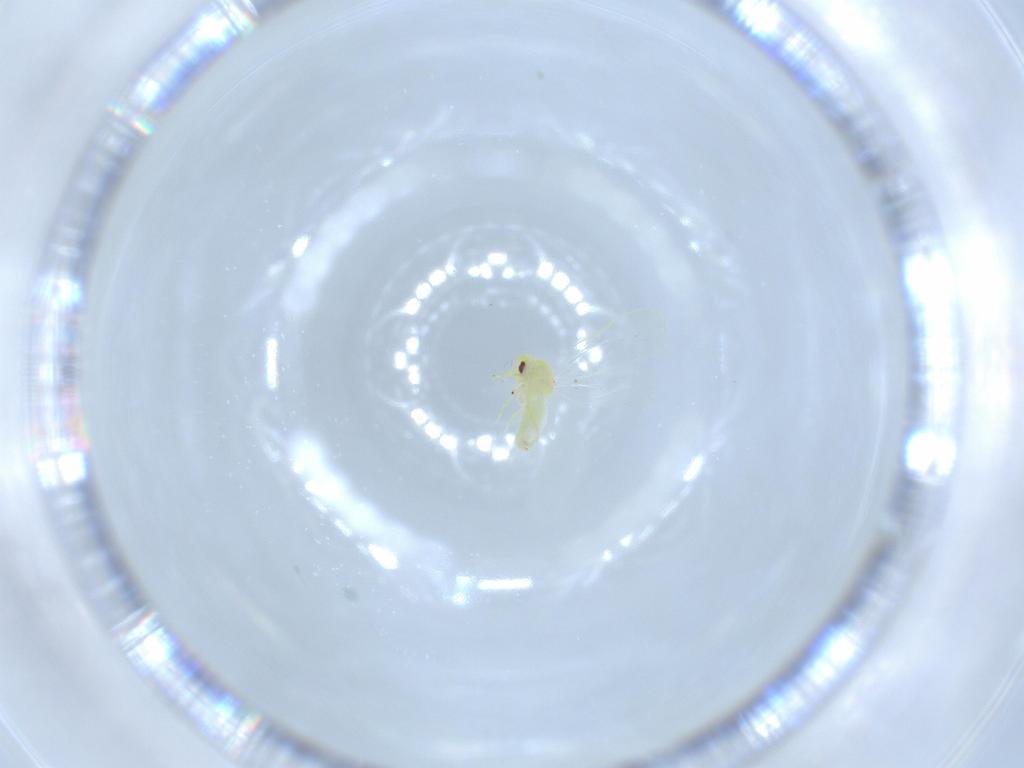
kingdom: Animalia
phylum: Arthropoda
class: Insecta
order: Hemiptera
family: Aleyrodidae
